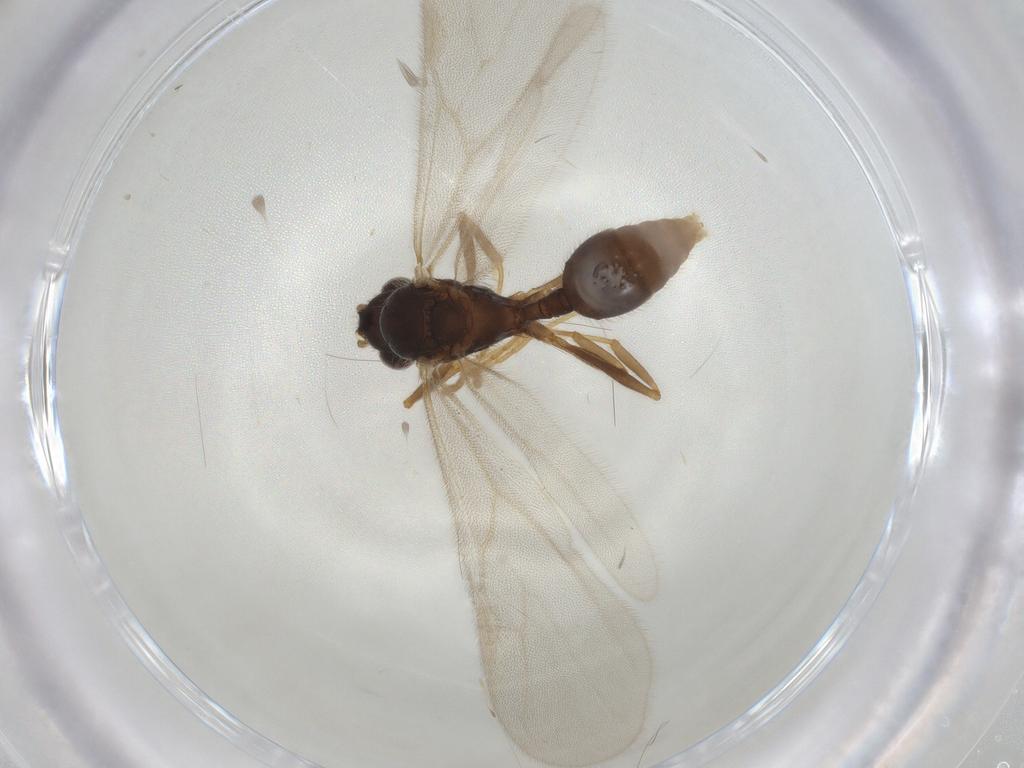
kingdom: Animalia
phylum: Arthropoda
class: Insecta
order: Hymenoptera
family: Formicidae
